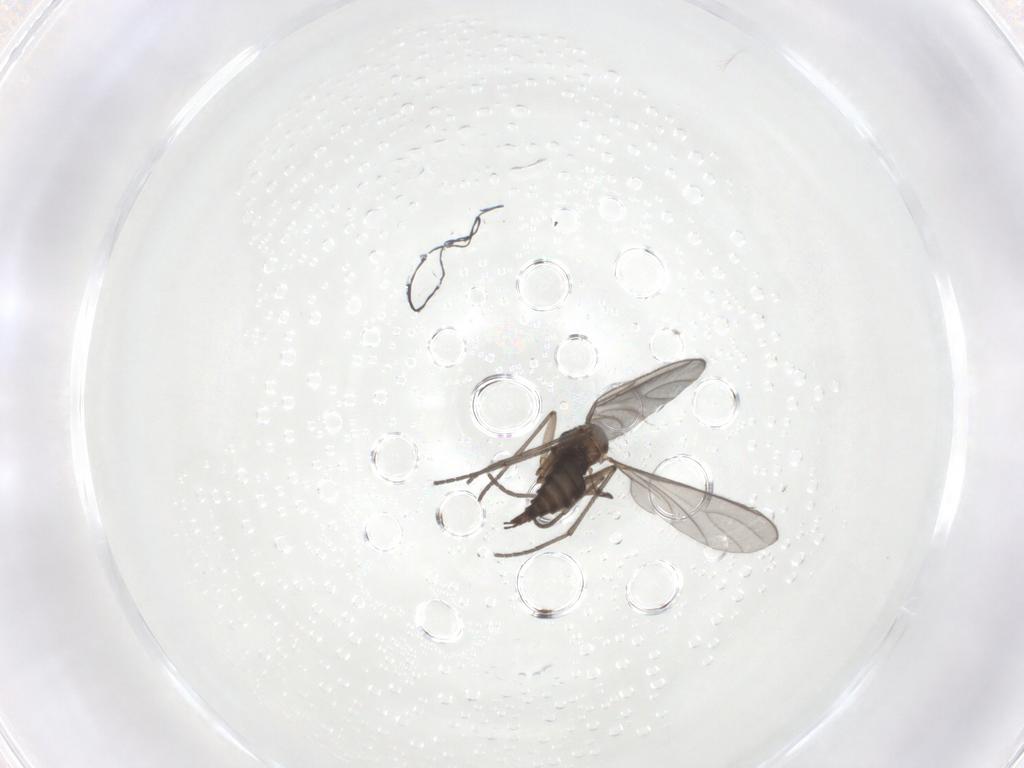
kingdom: Animalia
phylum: Arthropoda
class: Insecta
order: Diptera
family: Sciaridae
